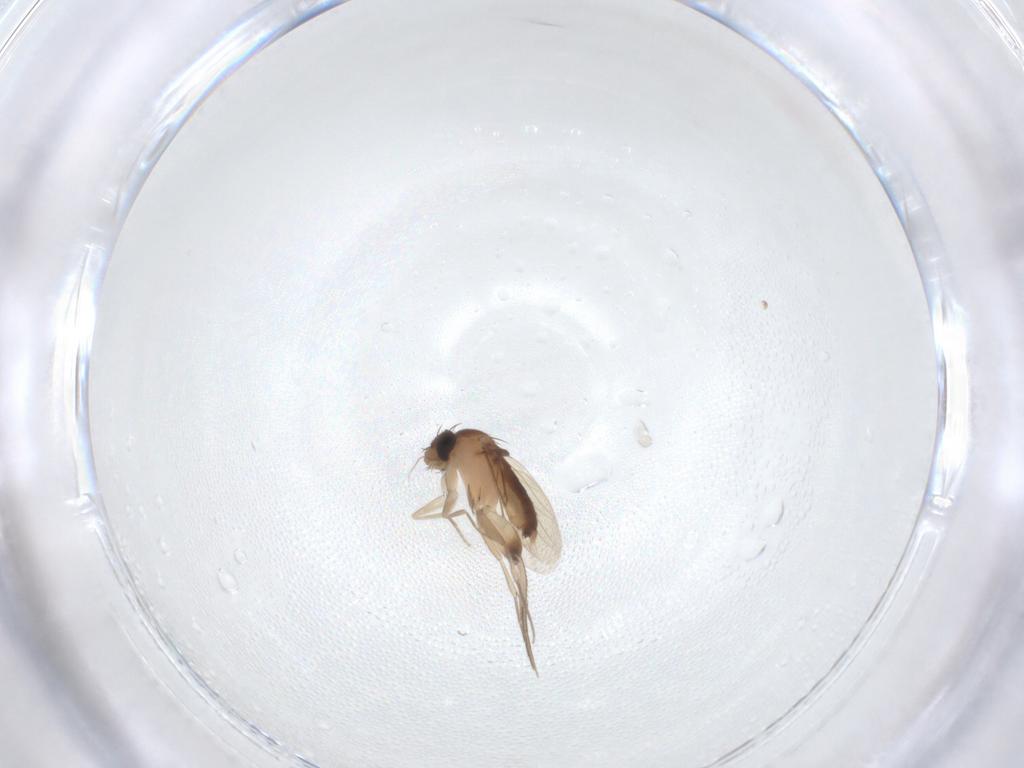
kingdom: Animalia
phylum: Arthropoda
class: Insecta
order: Diptera
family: Phoridae
